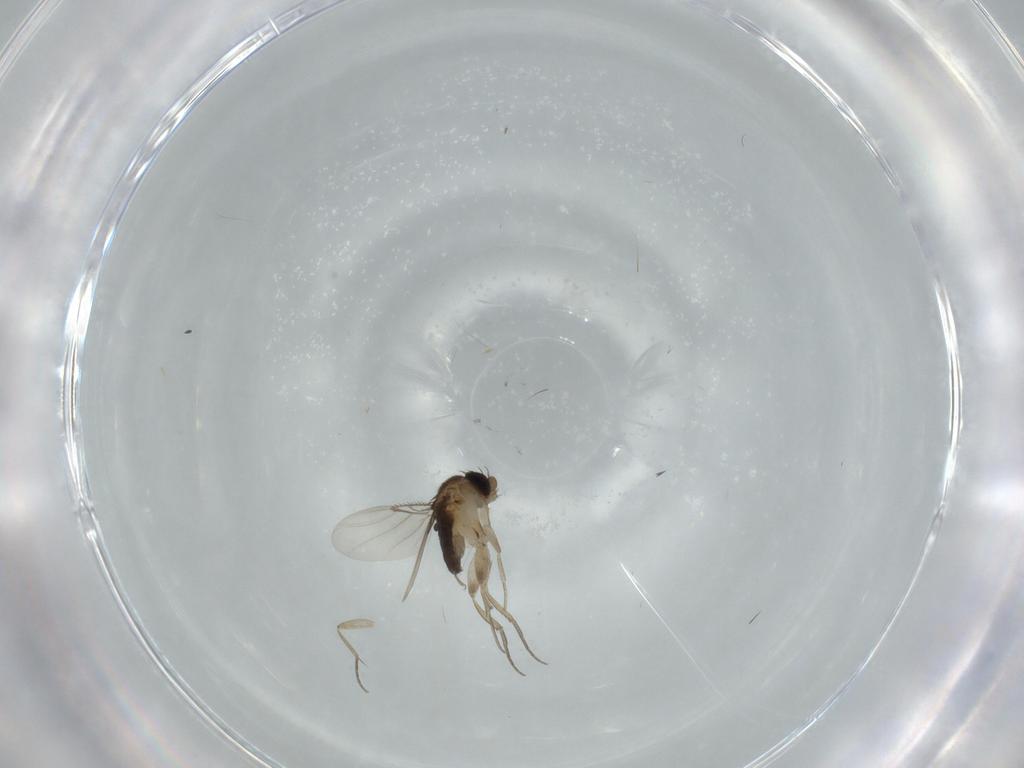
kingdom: Animalia
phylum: Arthropoda
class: Insecta
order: Diptera
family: Phoridae
